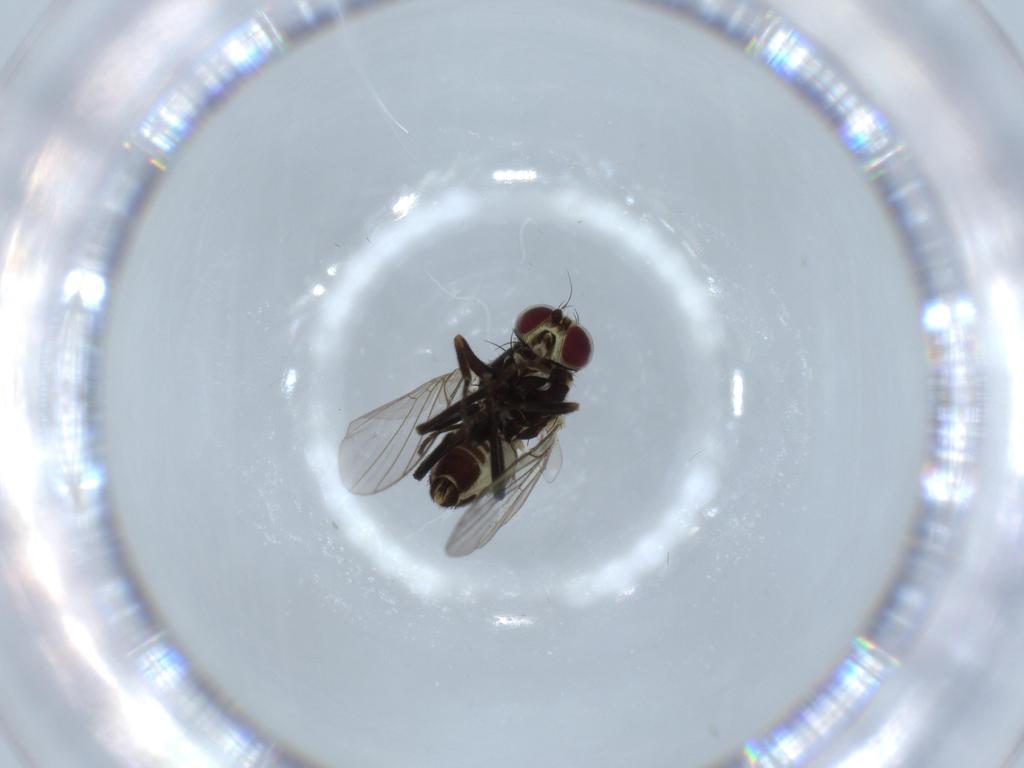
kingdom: Animalia
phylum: Arthropoda
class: Insecta
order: Diptera
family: Agromyzidae
